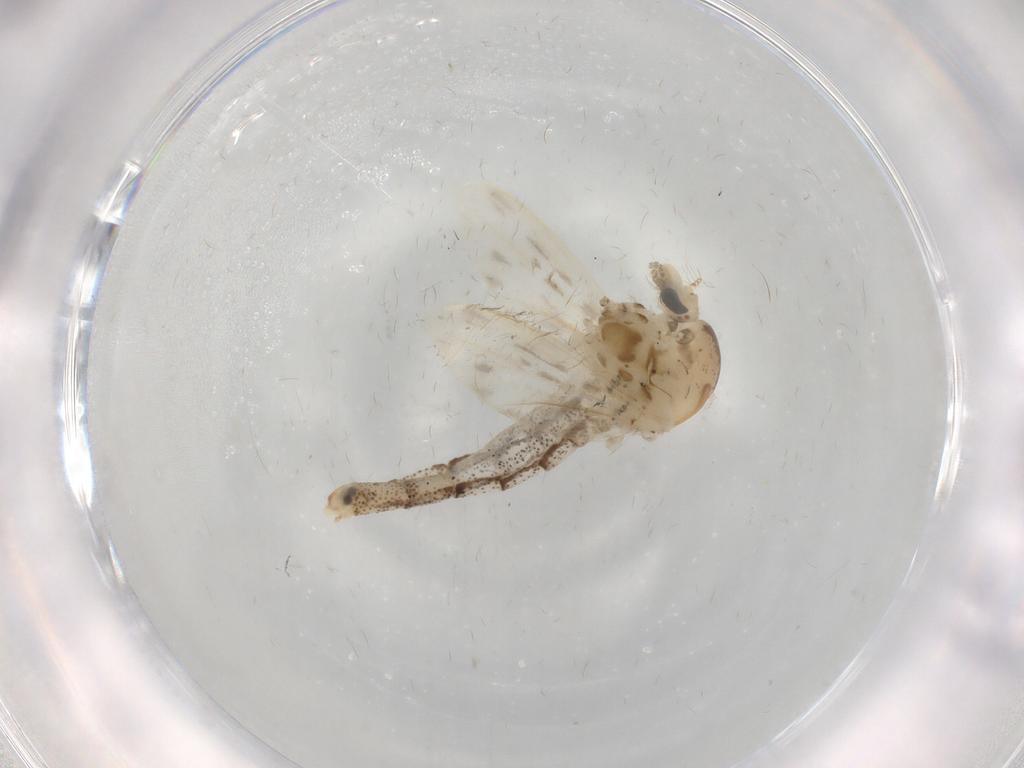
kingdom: Animalia
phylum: Arthropoda
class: Insecta
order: Diptera
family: Chaoboridae
